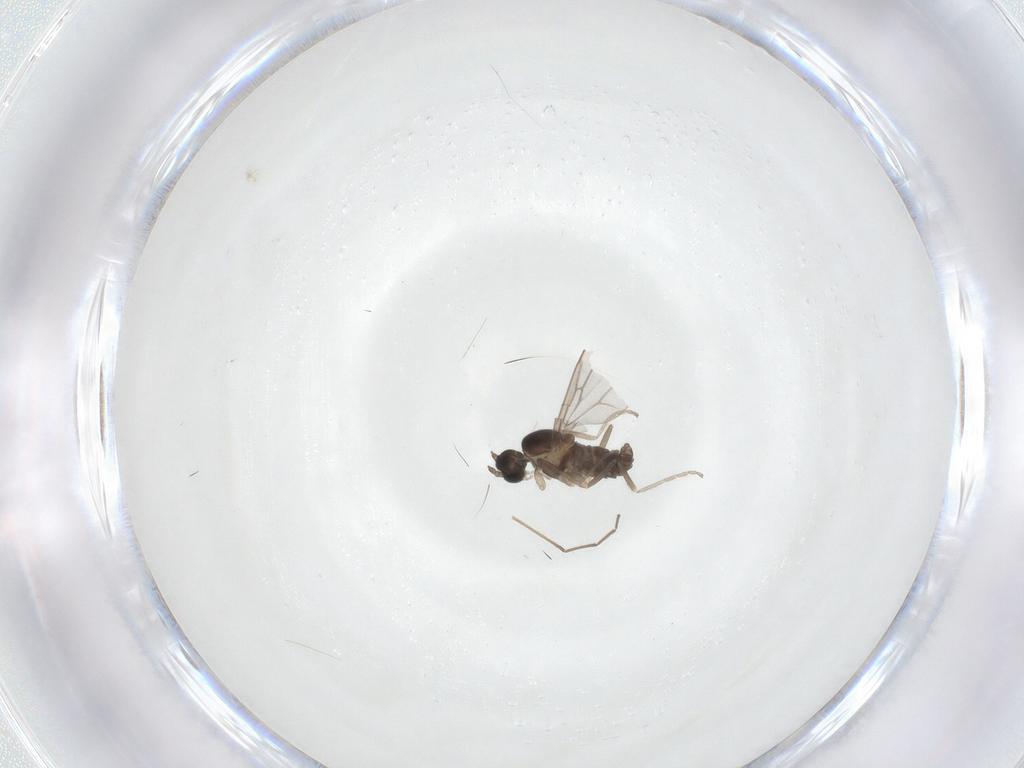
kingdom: Animalia
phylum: Arthropoda
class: Insecta
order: Diptera
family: Cecidomyiidae
